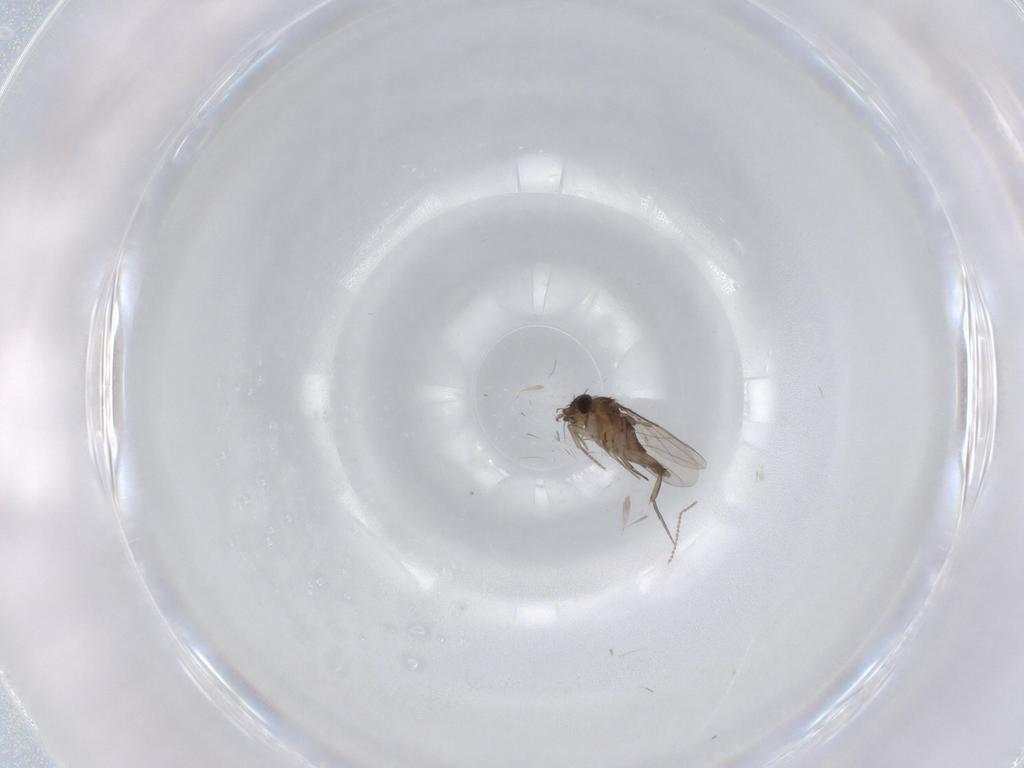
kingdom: Animalia
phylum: Arthropoda
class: Insecta
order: Diptera
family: Cecidomyiidae
